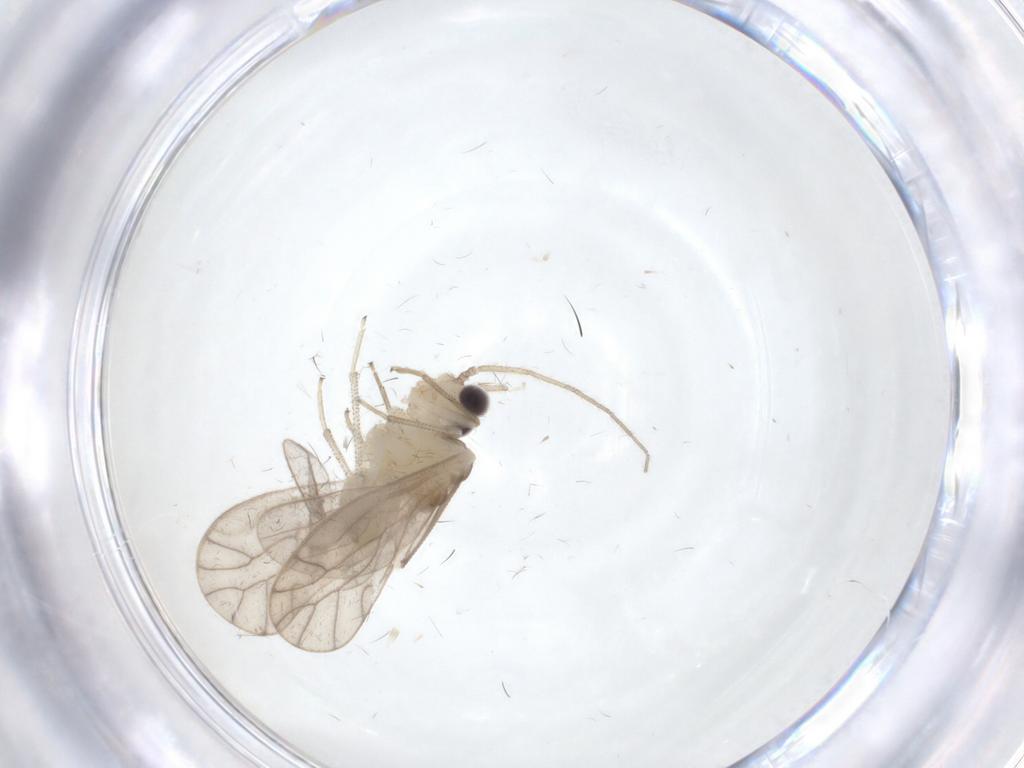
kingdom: Animalia
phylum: Arthropoda
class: Insecta
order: Psocodea
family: Caeciliusidae
